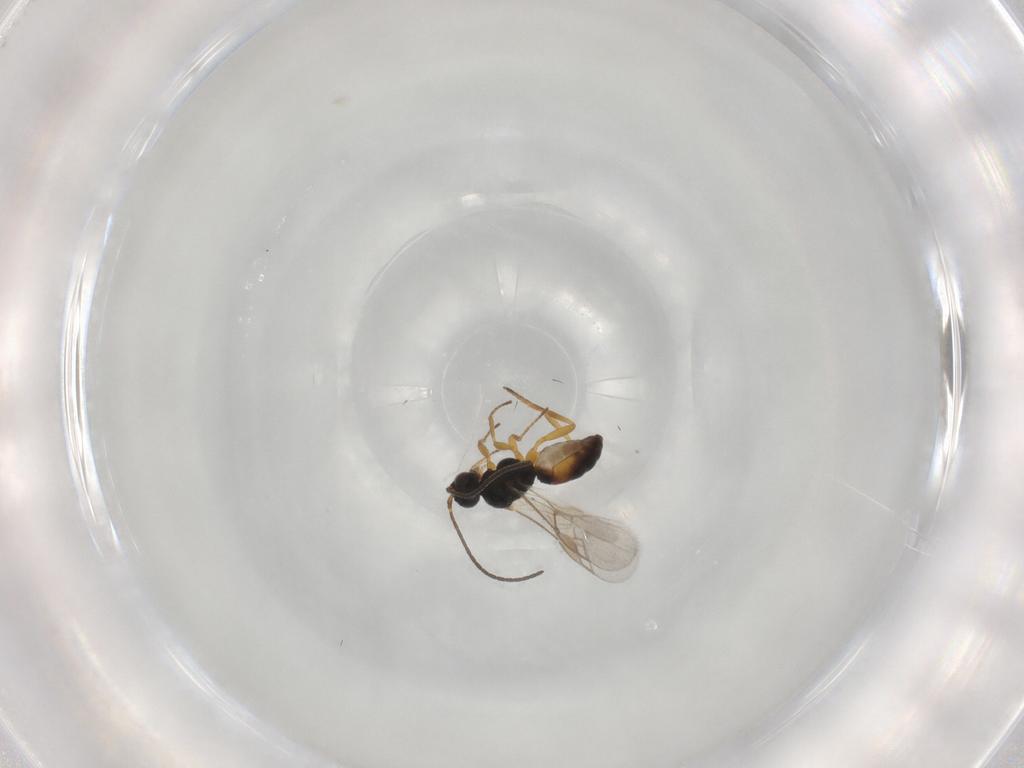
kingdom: Animalia
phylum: Arthropoda
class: Insecta
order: Hymenoptera
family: Braconidae
